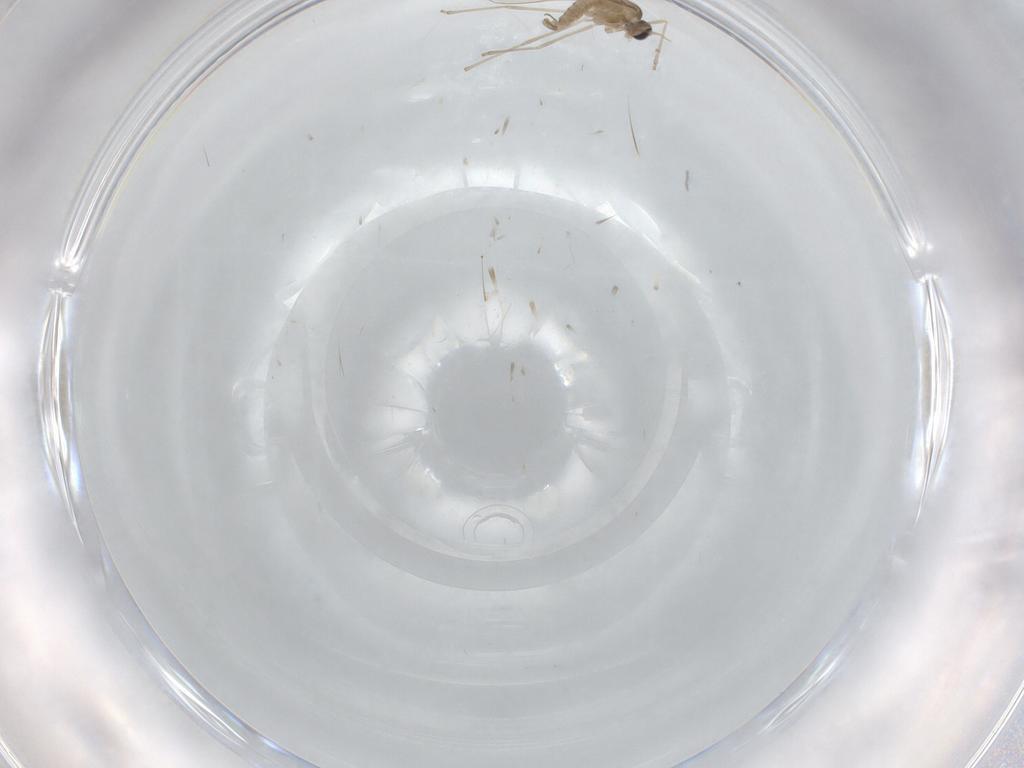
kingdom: Animalia
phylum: Arthropoda
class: Insecta
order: Diptera
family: Cecidomyiidae
